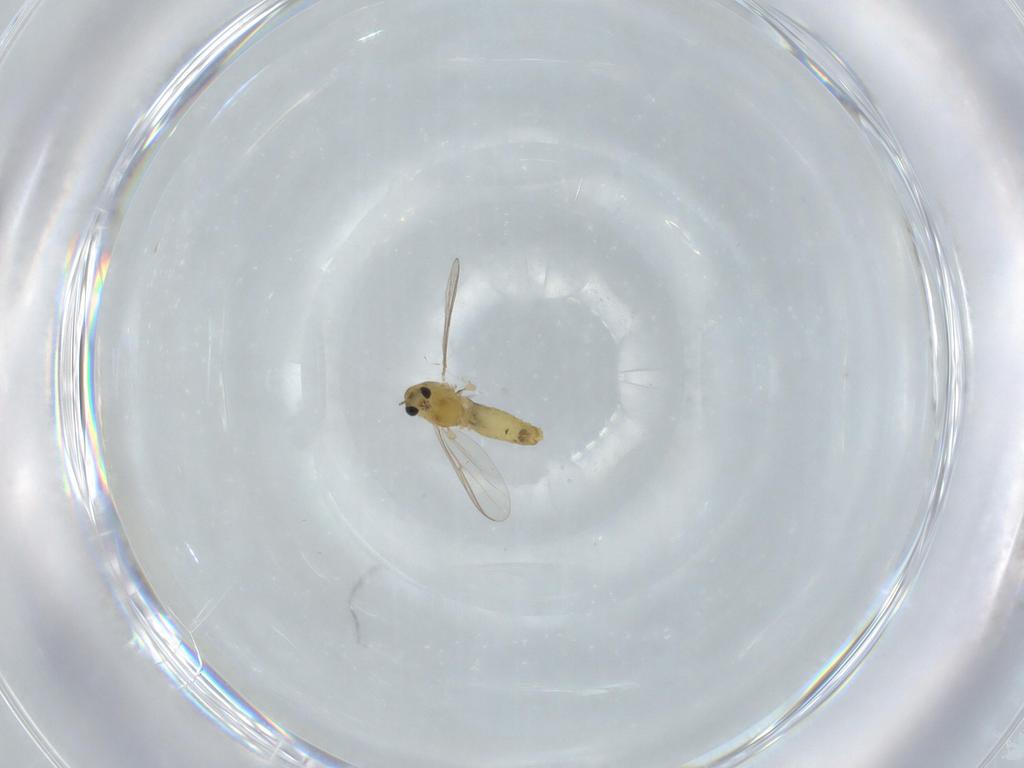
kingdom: Animalia
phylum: Arthropoda
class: Insecta
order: Diptera
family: Chironomidae
